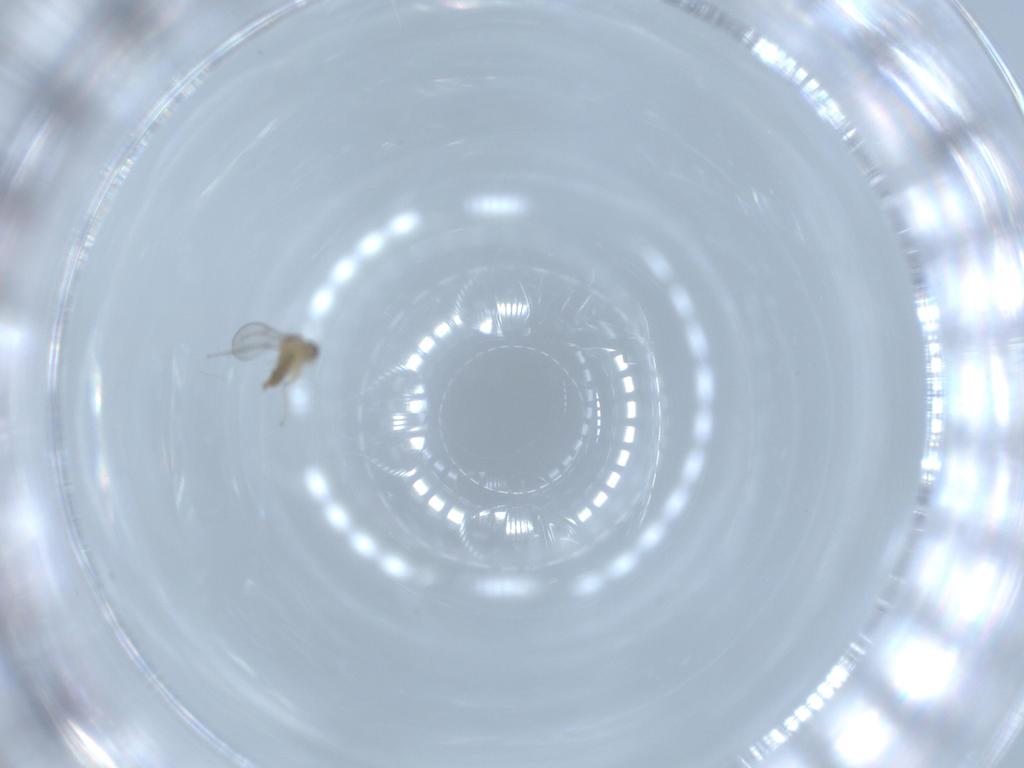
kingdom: Animalia
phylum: Arthropoda
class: Insecta
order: Diptera
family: Cecidomyiidae
